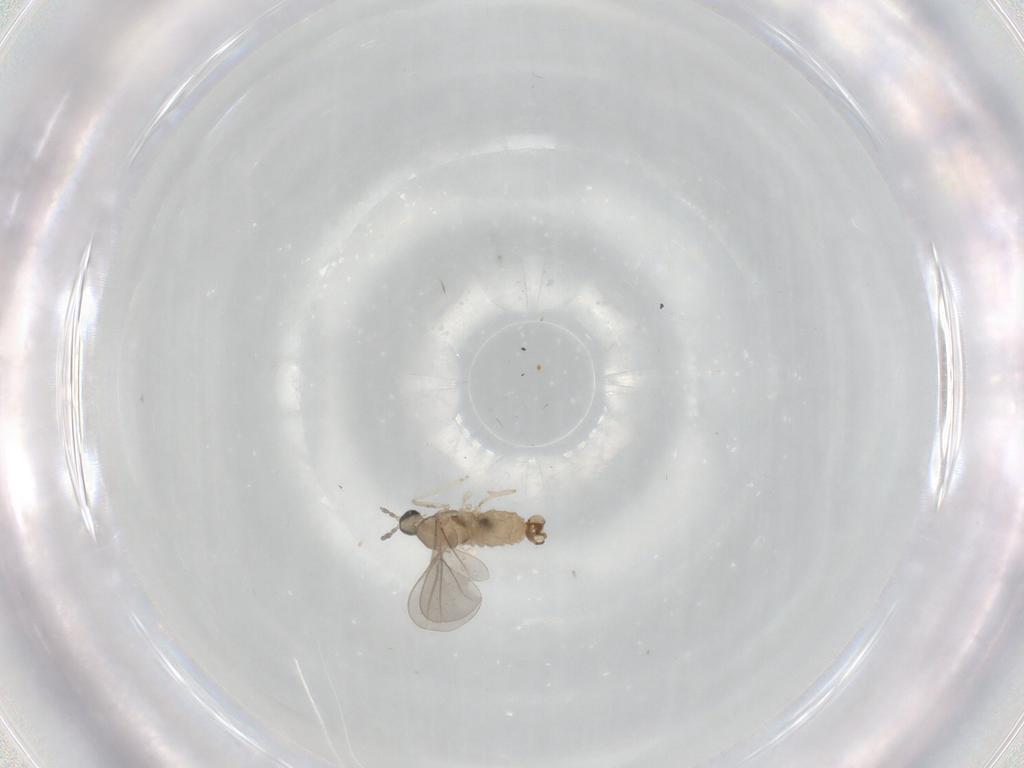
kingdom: Animalia
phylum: Arthropoda
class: Insecta
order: Diptera
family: Cecidomyiidae
